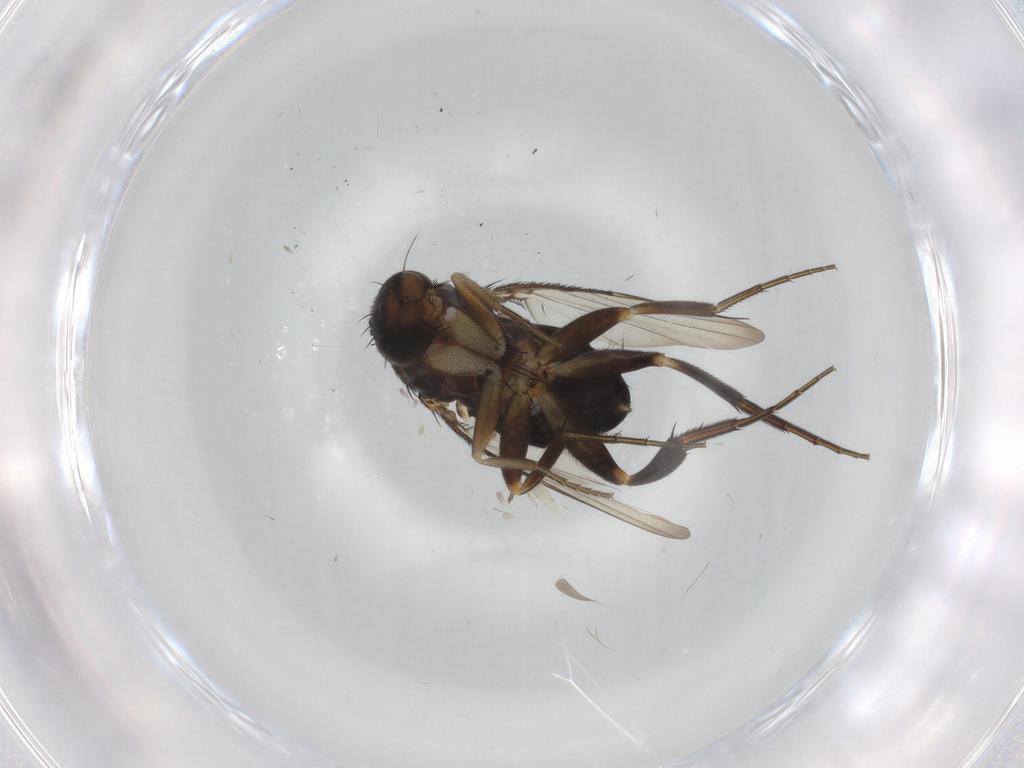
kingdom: Animalia
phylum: Arthropoda
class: Insecta
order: Diptera
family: Phoridae
